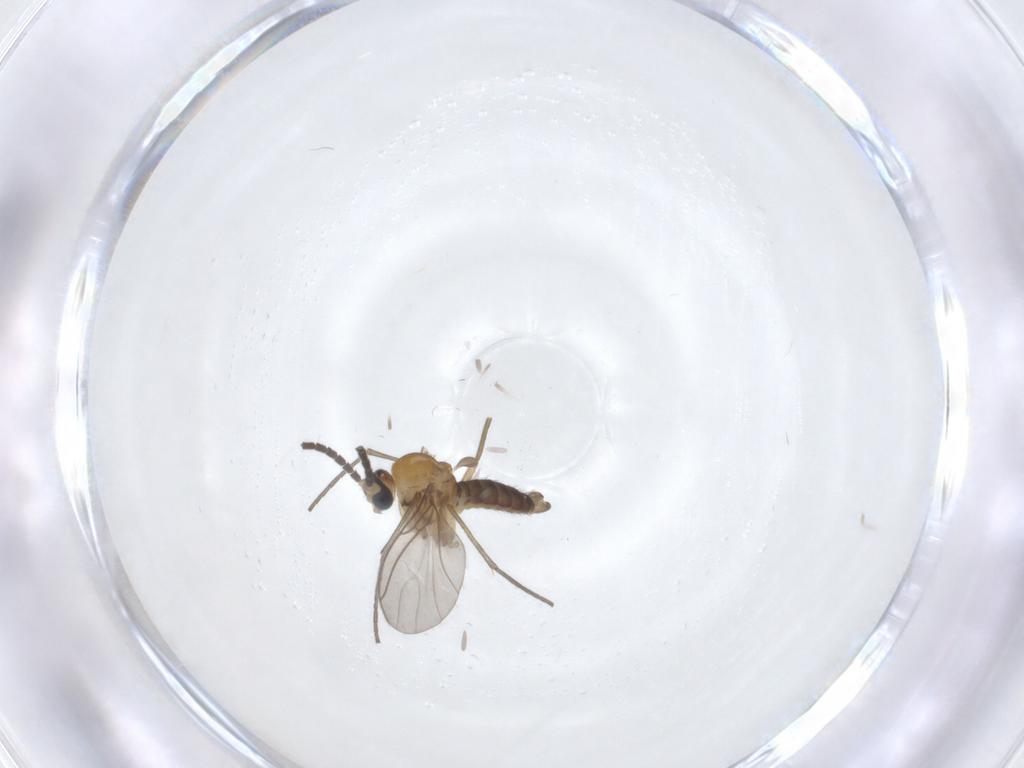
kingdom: Animalia
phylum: Arthropoda
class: Insecta
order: Diptera
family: Sciaridae
